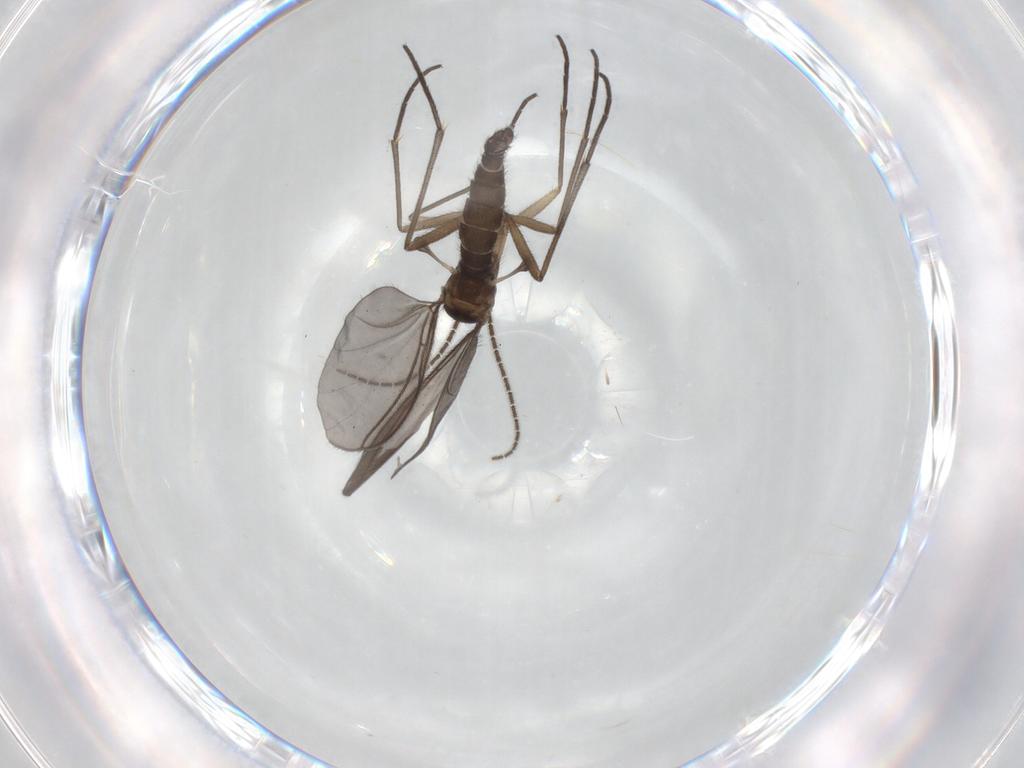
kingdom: Animalia
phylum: Arthropoda
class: Insecta
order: Diptera
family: Sciaridae
